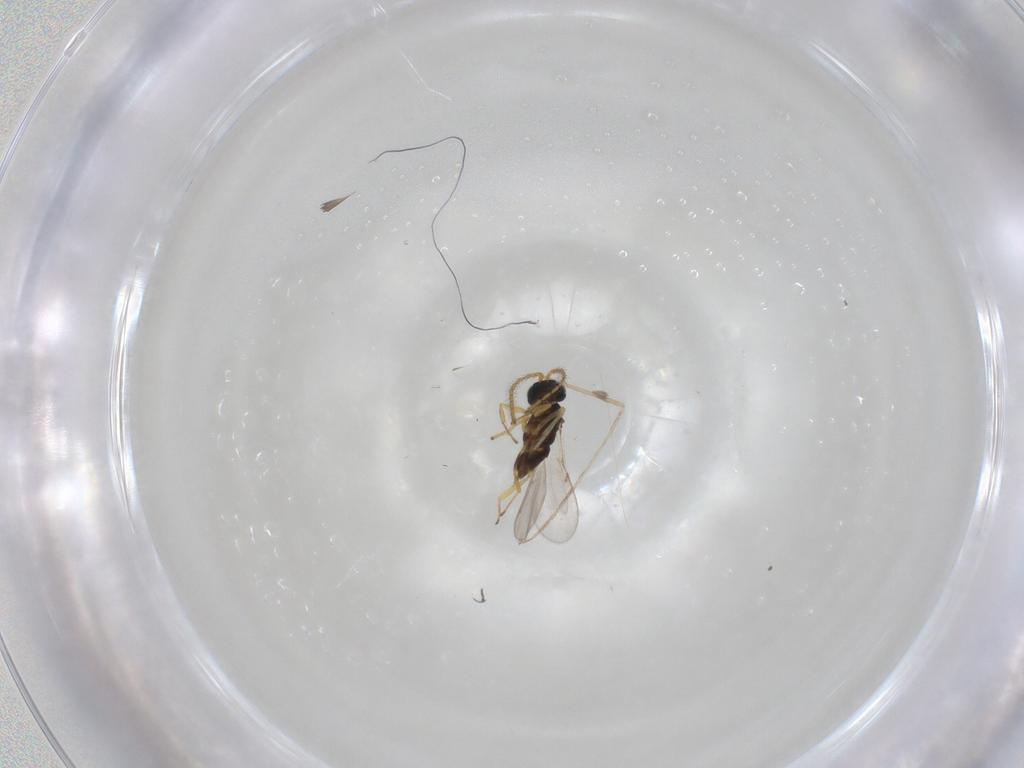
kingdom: Animalia
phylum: Arthropoda
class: Insecta
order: Hymenoptera
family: Encyrtidae
